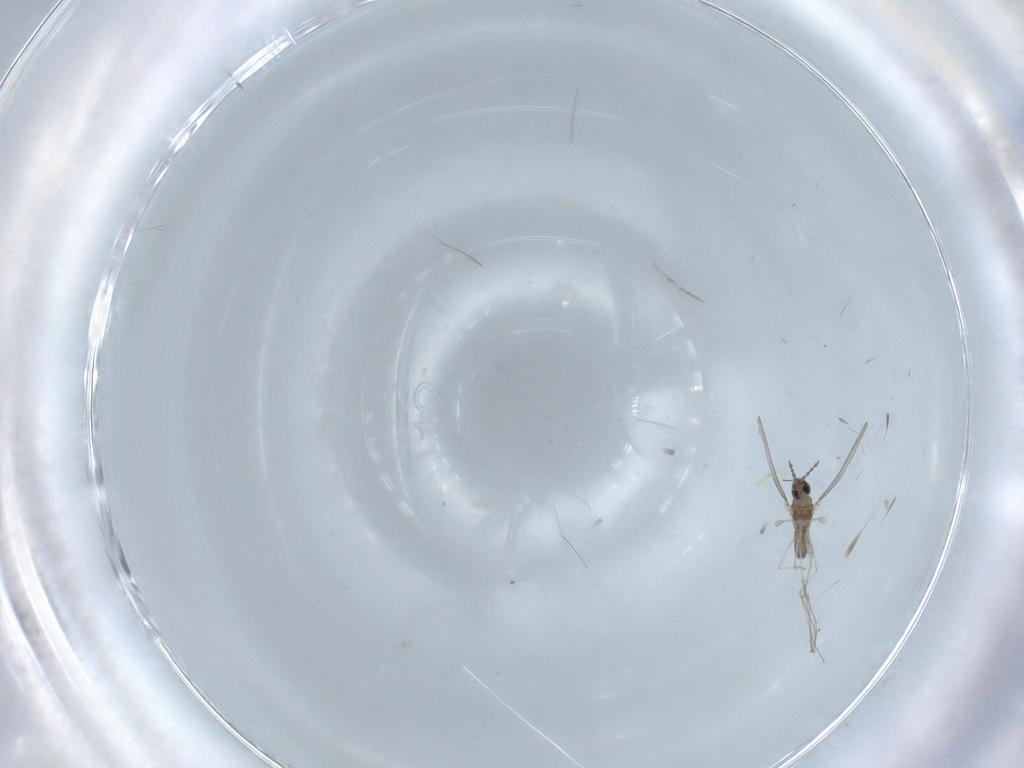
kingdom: Animalia
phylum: Arthropoda
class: Insecta
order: Diptera
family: Cecidomyiidae
